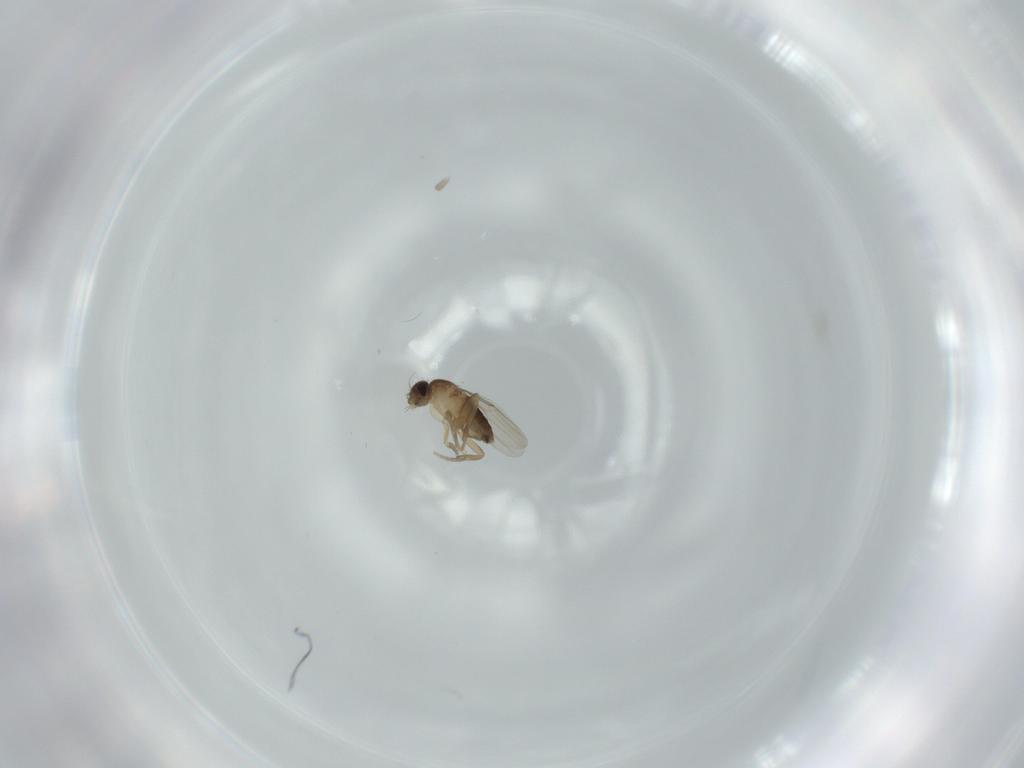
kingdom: Animalia
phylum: Arthropoda
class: Insecta
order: Diptera
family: Phoridae
